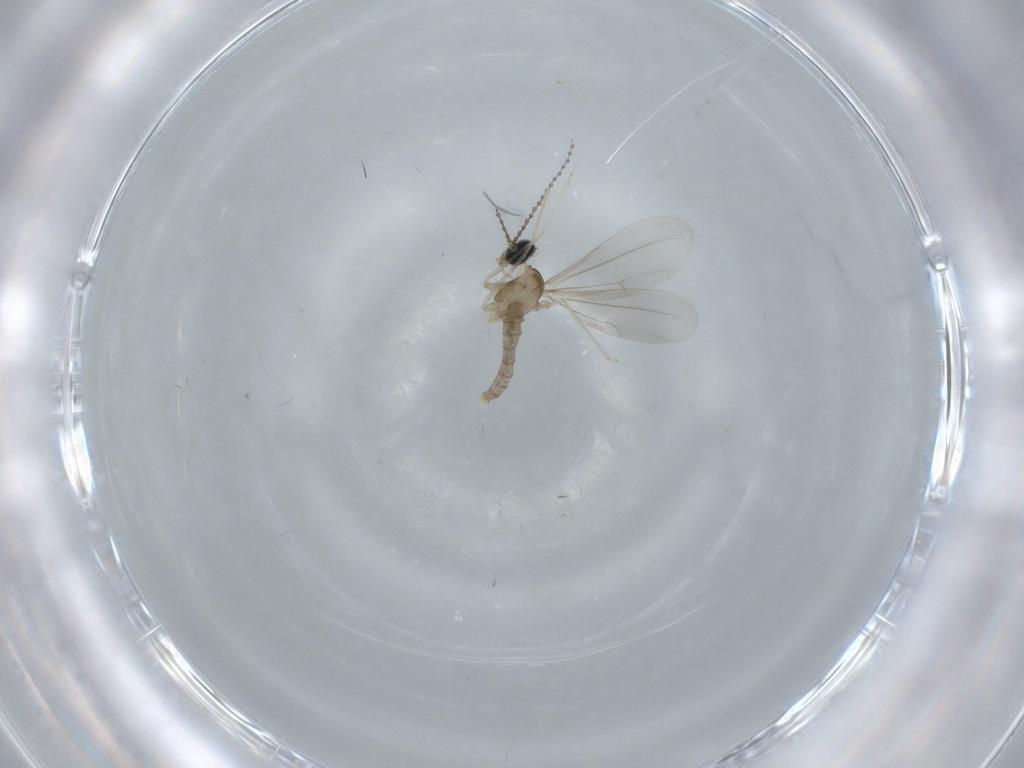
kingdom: Animalia
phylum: Arthropoda
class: Insecta
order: Diptera
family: Cecidomyiidae
